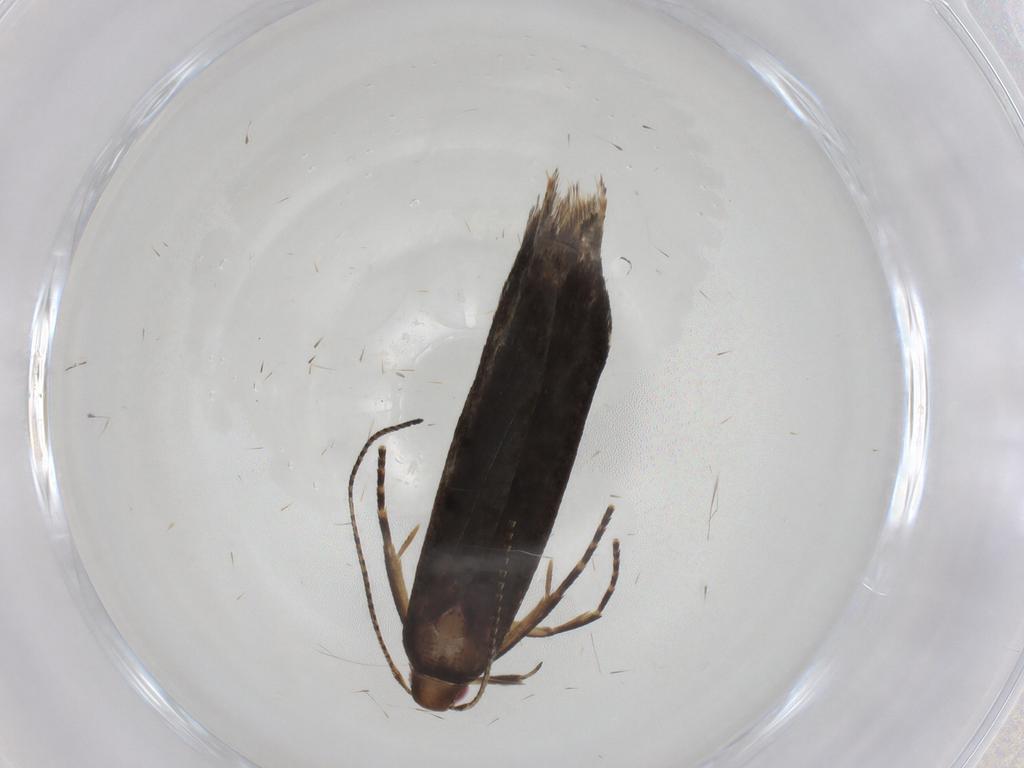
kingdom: Animalia
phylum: Arthropoda
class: Insecta
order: Lepidoptera
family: Gelechiidae
